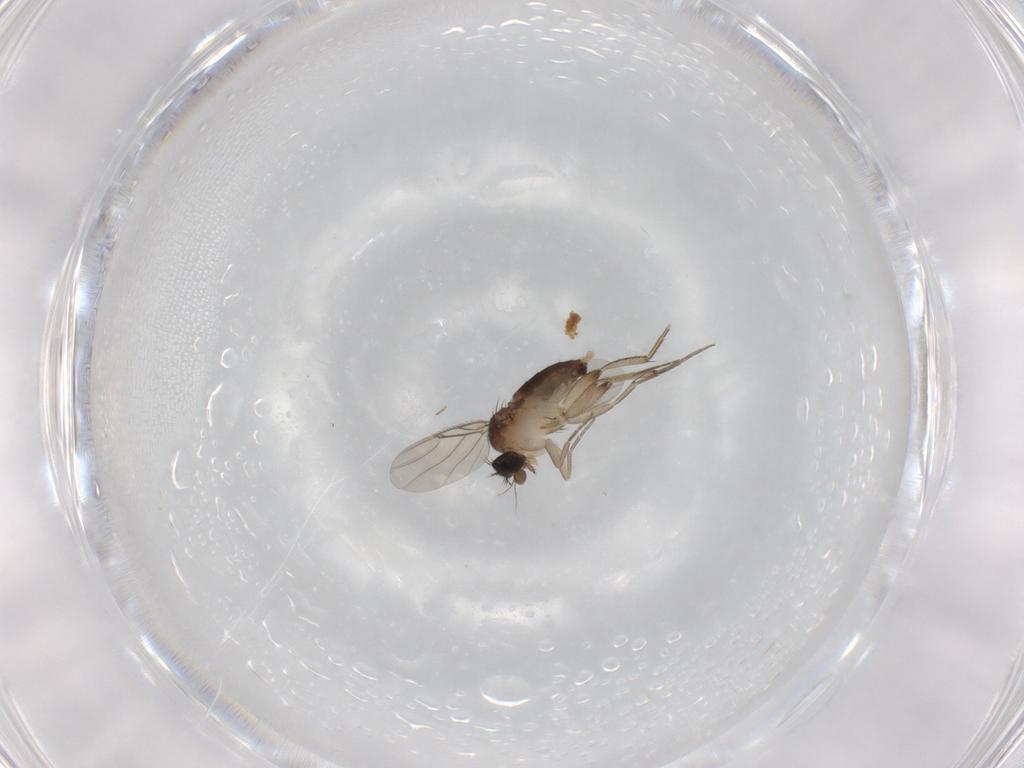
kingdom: Animalia
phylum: Arthropoda
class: Insecta
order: Diptera
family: Phoridae
